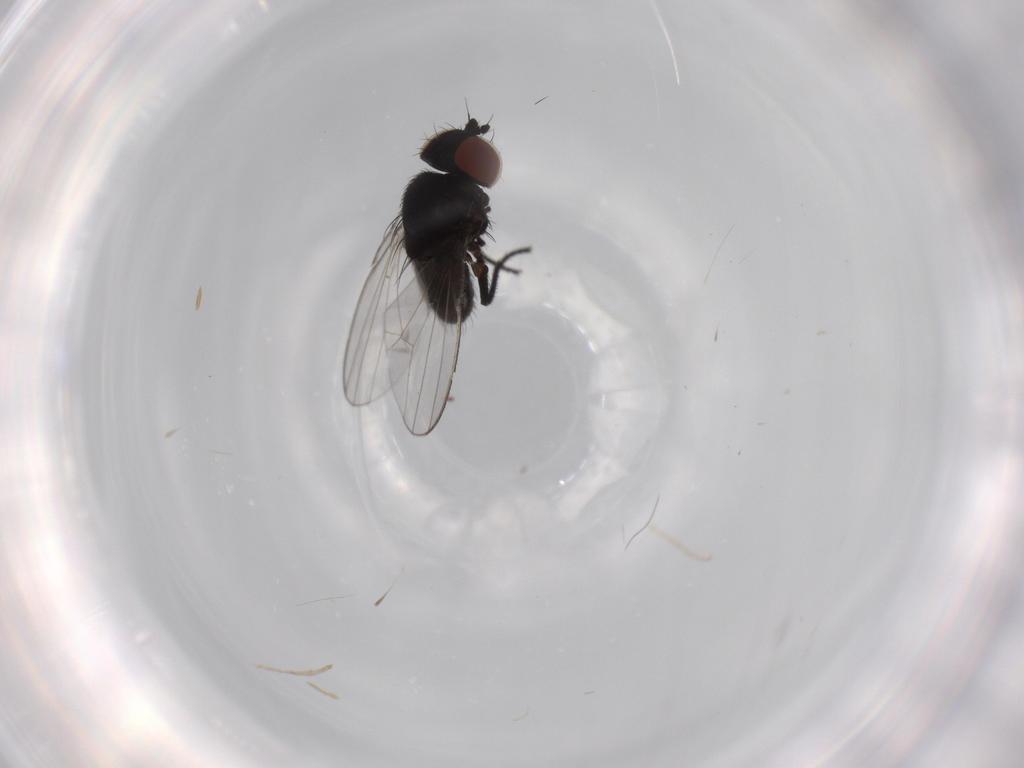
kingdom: Animalia
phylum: Arthropoda
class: Insecta
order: Diptera
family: Milichiidae
